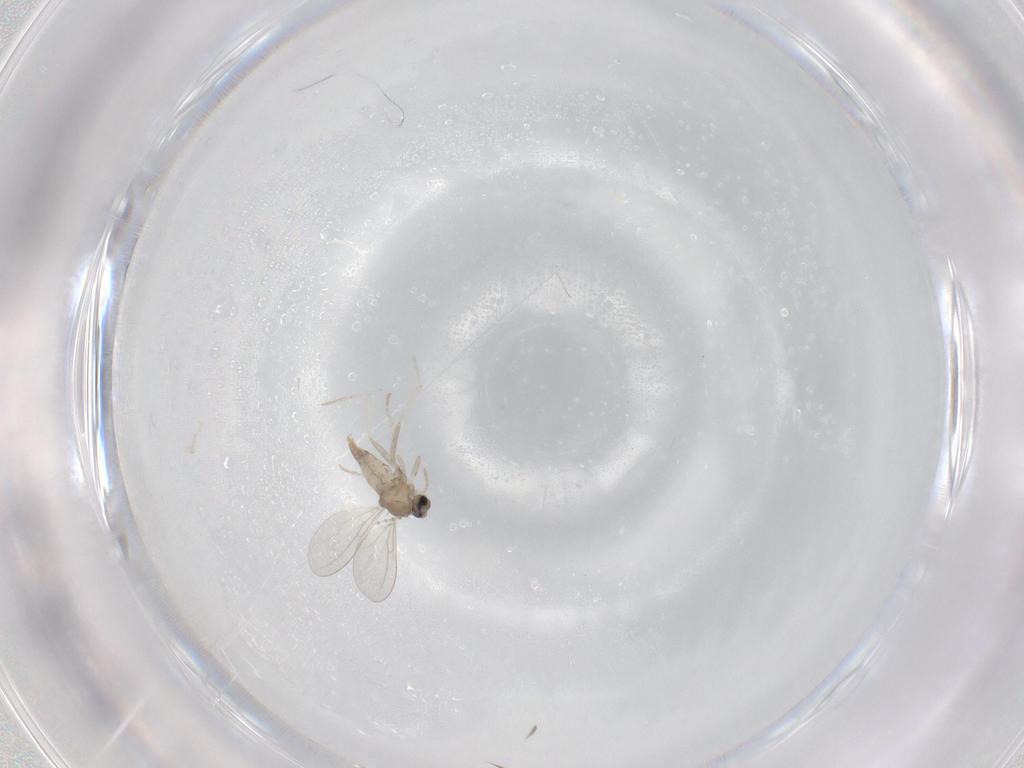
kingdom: Animalia
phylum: Arthropoda
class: Insecta
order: Diptera
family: Cecidomyiidae
